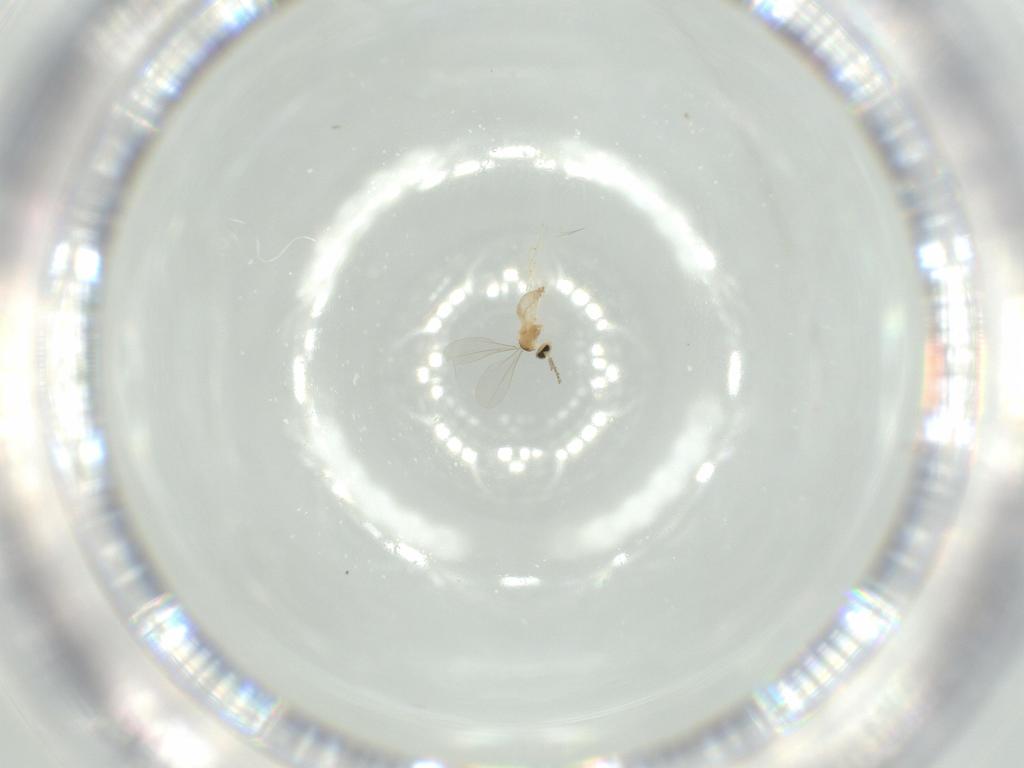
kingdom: Animalia
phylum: Arthropoda
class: Insecta
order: Diptera
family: Cecidomyiidae
